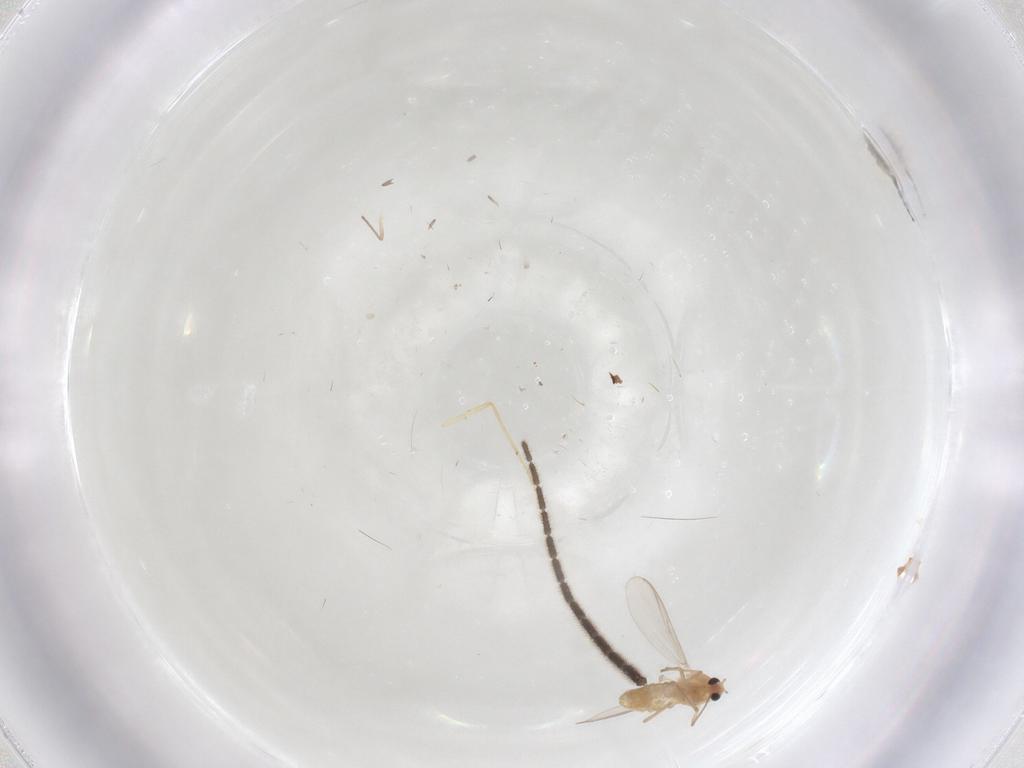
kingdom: Animalia
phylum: Arthropoda
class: Insecta
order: Diptera
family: Chironomidae
